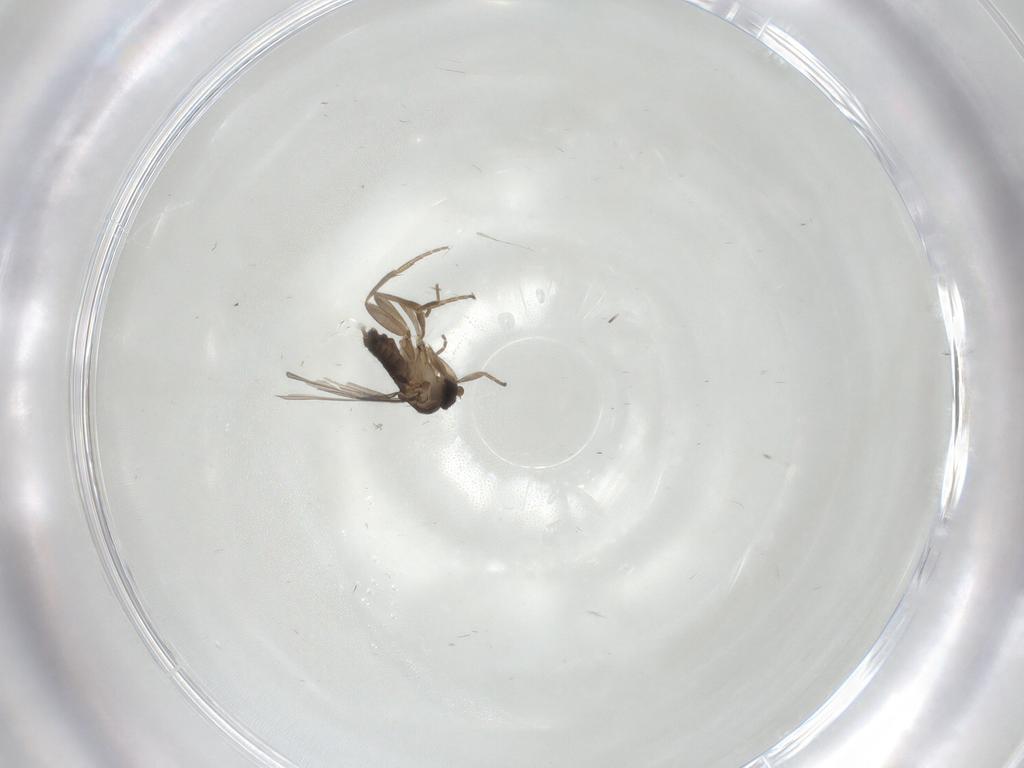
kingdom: Animalia
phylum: Arthropoda
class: Insecta
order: Diptera
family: Phoridae
